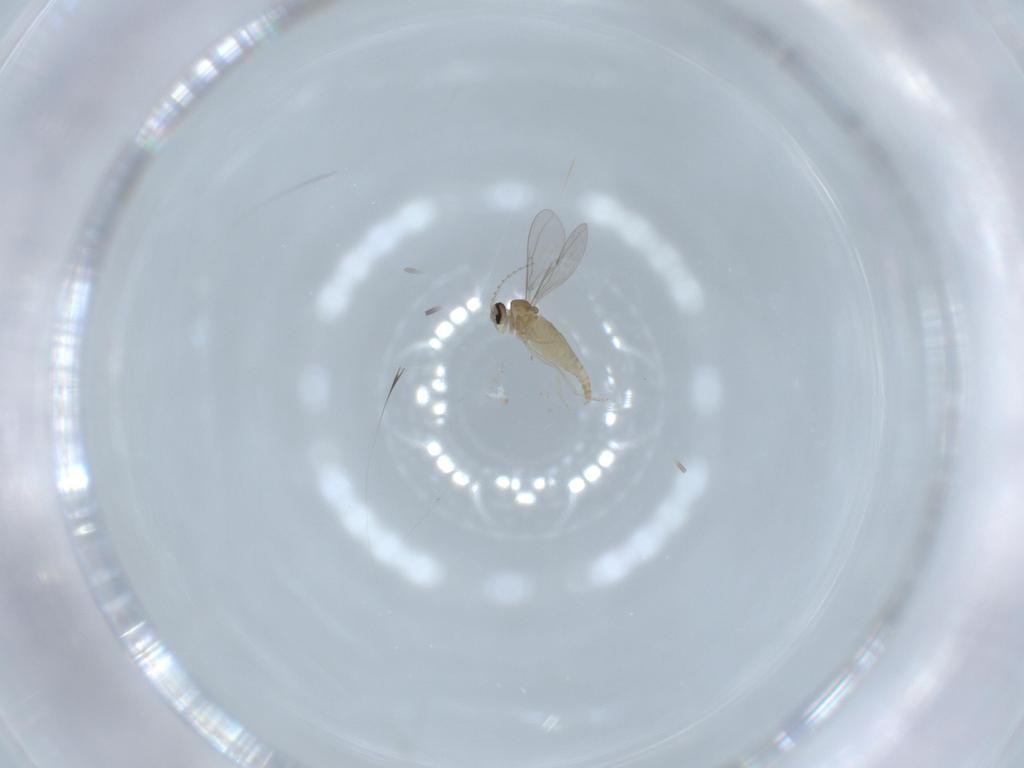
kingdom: Animalia
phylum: Arthropoda
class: Insecta
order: Diptera
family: Cecidomyiidae
